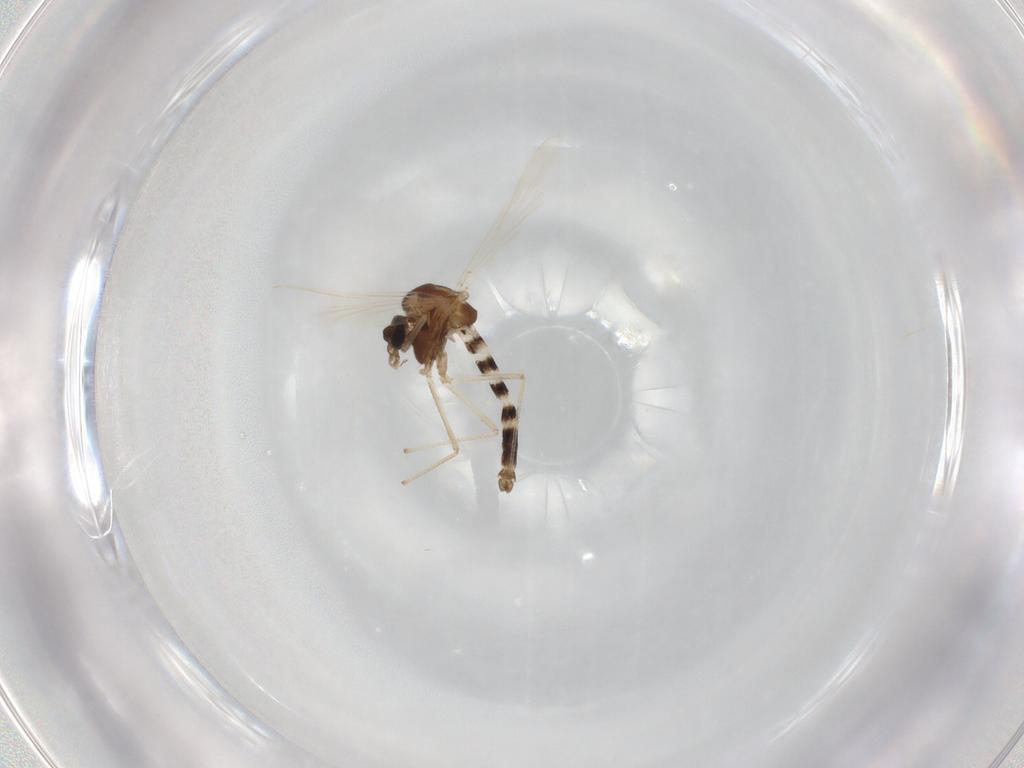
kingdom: Animalia
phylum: Arthropoda
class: Insecta
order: Diptera
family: Chironomidae
